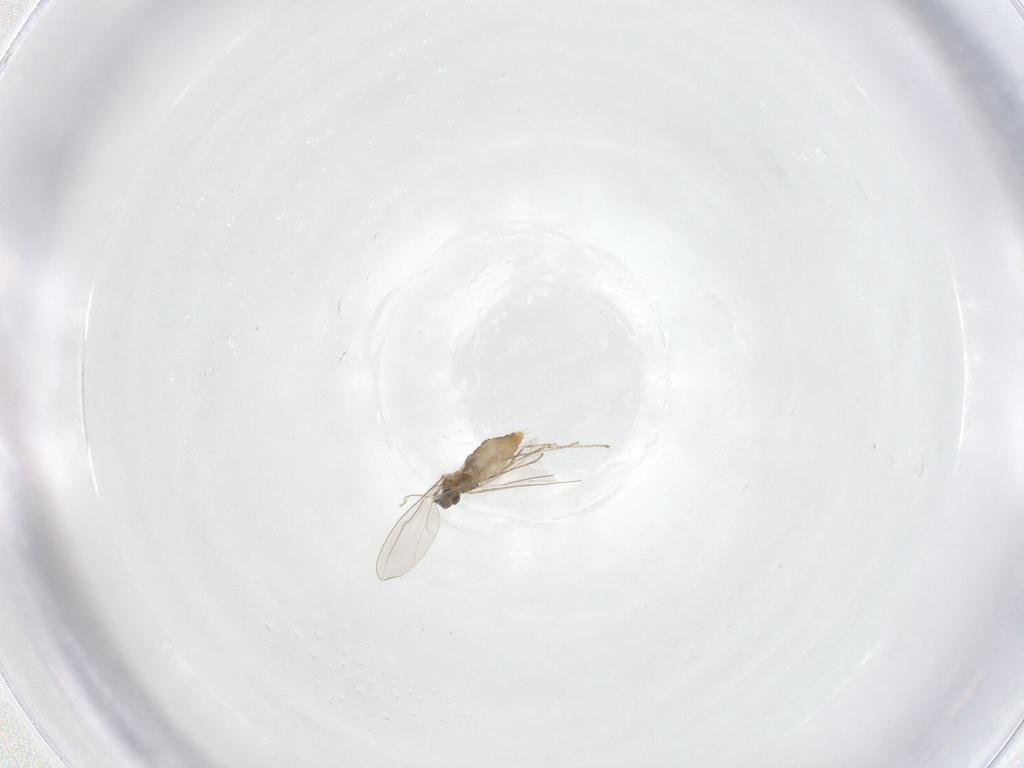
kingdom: Animalia
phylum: Arthropoda
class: Insecta
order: Diptera
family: Cecidomyiidae
